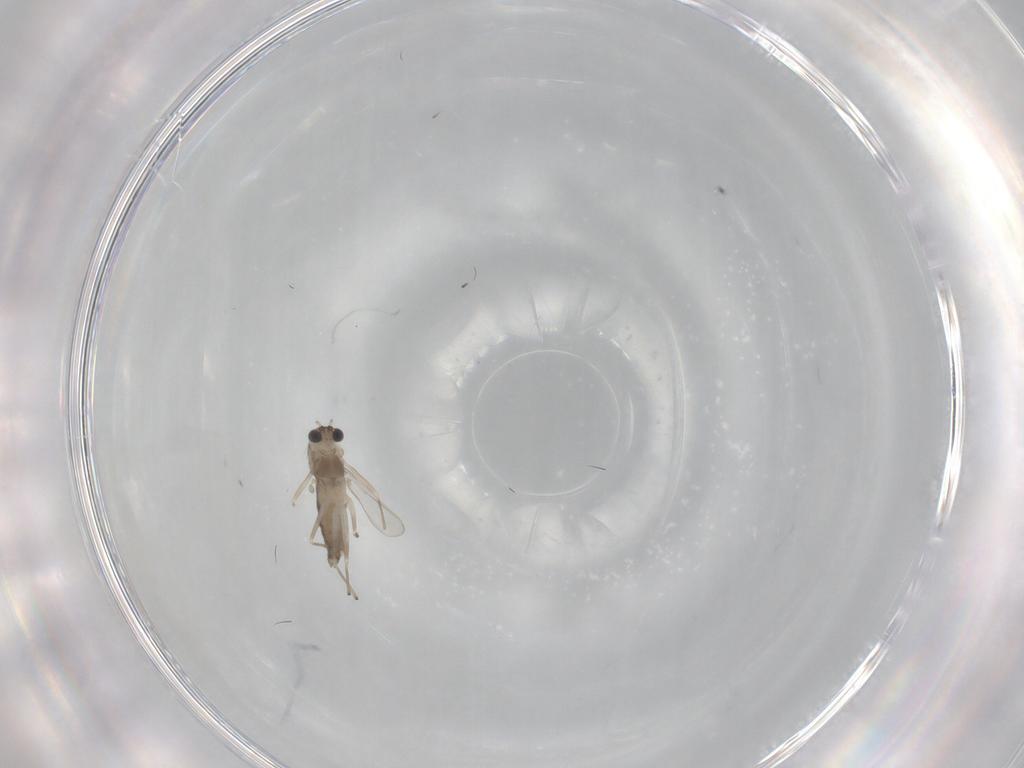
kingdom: Animalia
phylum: Arthropoda
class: Insecta
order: Diptera
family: Chironomidae
